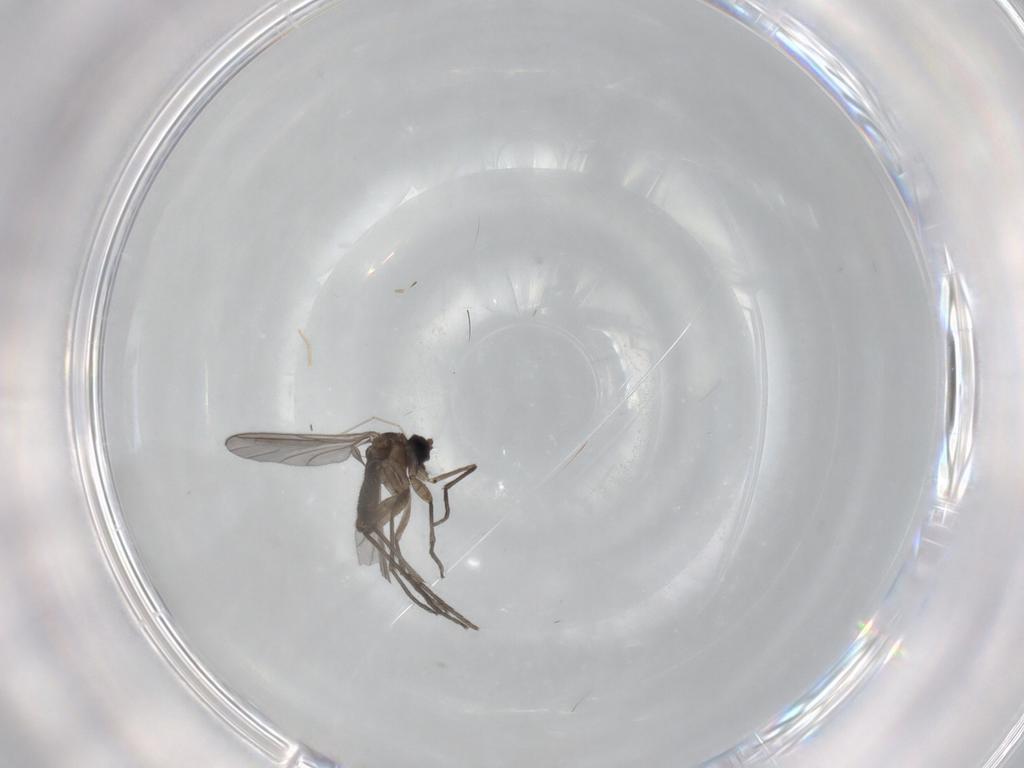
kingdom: Animalia
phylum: Arthropoda
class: Insecta
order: Diptera
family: Sciaridae
